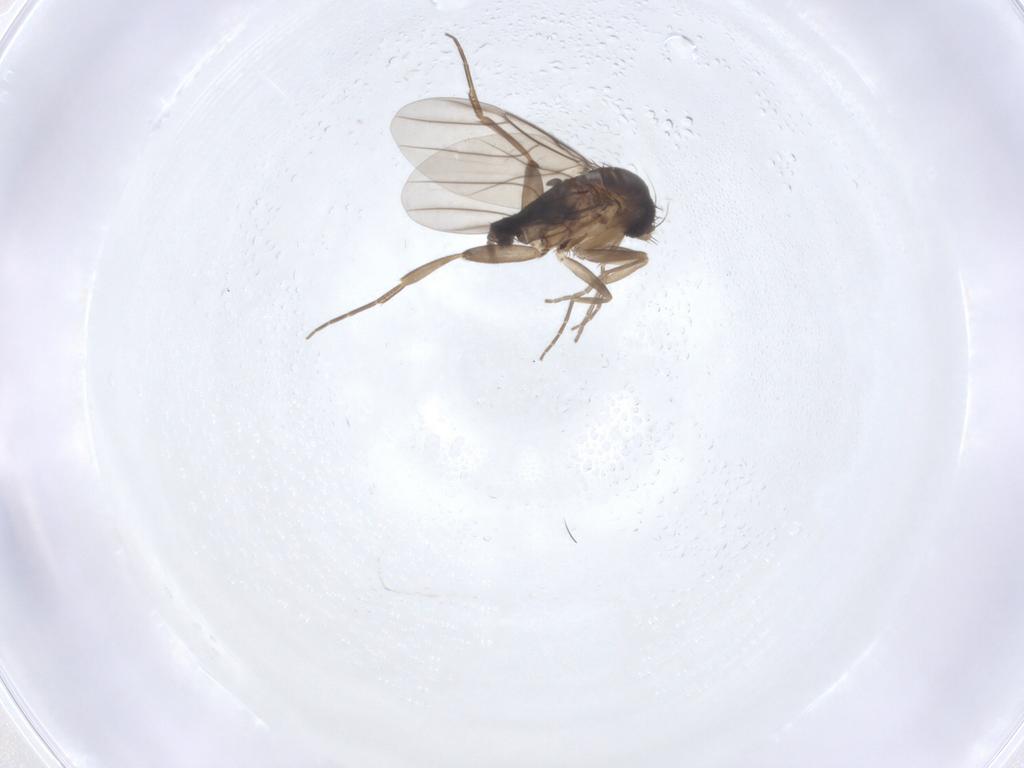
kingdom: Animalia
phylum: Arthropoda
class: Insecta
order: Diptera
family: Phoridae
